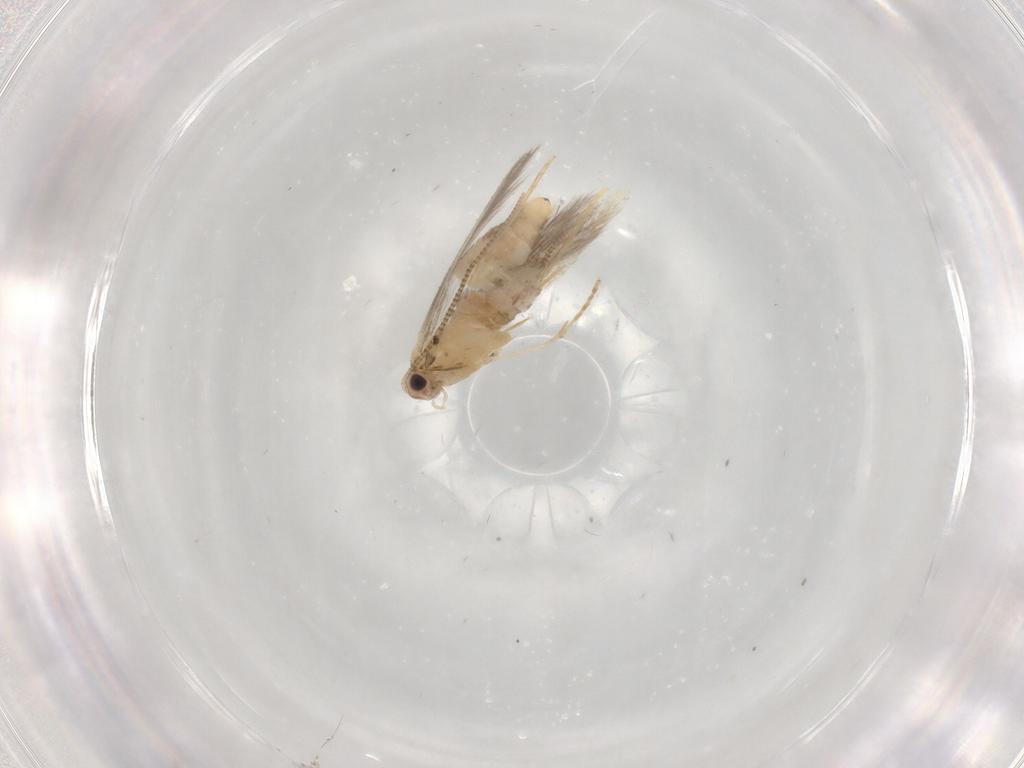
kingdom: Animalia
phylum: Arthropoda
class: Insecta
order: Lepidoptera
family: Tineidae
